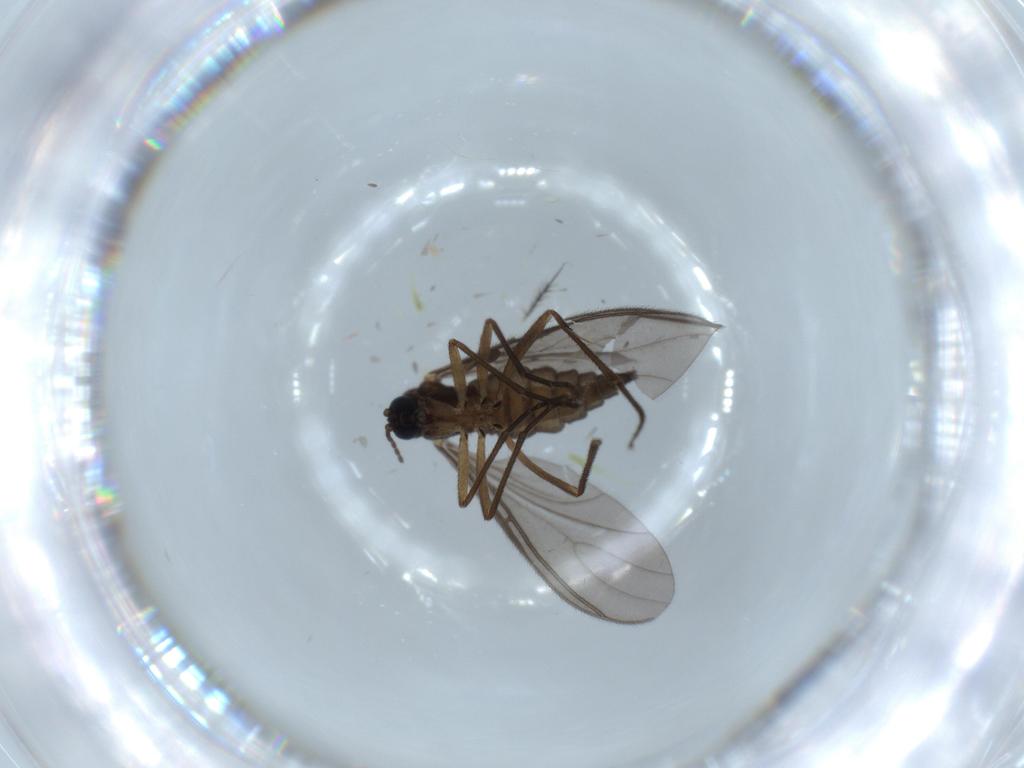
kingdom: Animalia
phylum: Arthropoda
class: Insecta
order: Diptera
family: Sciaridae
